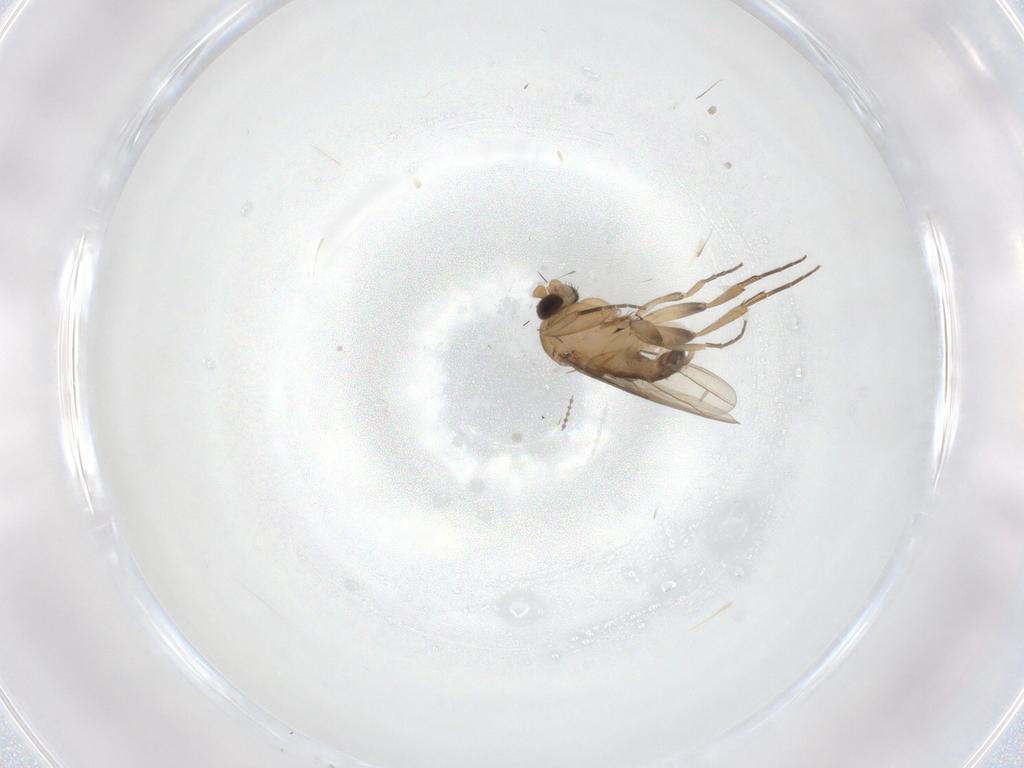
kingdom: Animalia
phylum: Arthropoda
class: Insecta
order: Diptera
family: Phoridae
